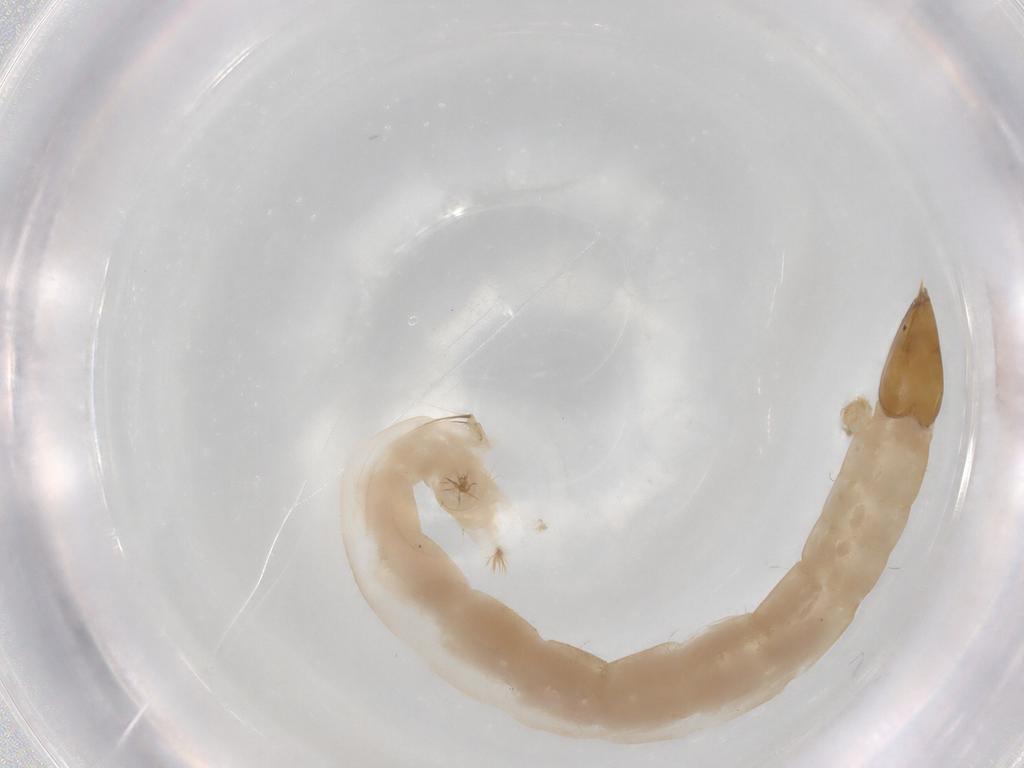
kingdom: Animalia
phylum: Arthropoda
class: Insecta
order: Diptera
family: Chironomidae
